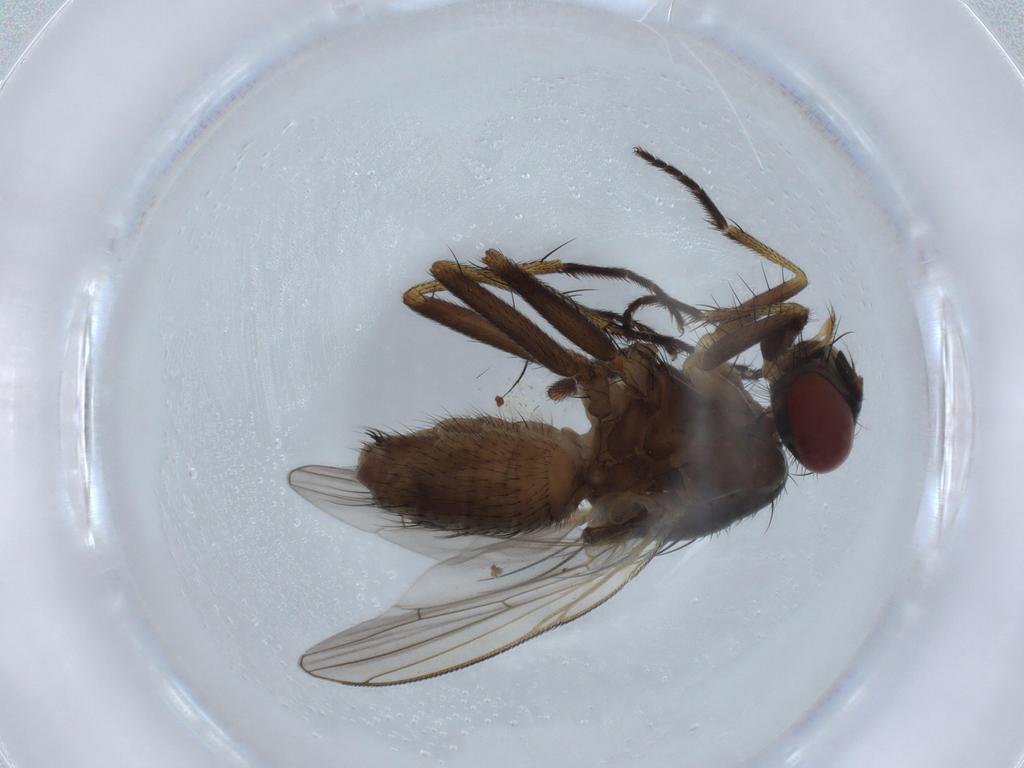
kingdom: Animalia
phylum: Arthropoda
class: Insecta
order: Diptera
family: Muscidae
